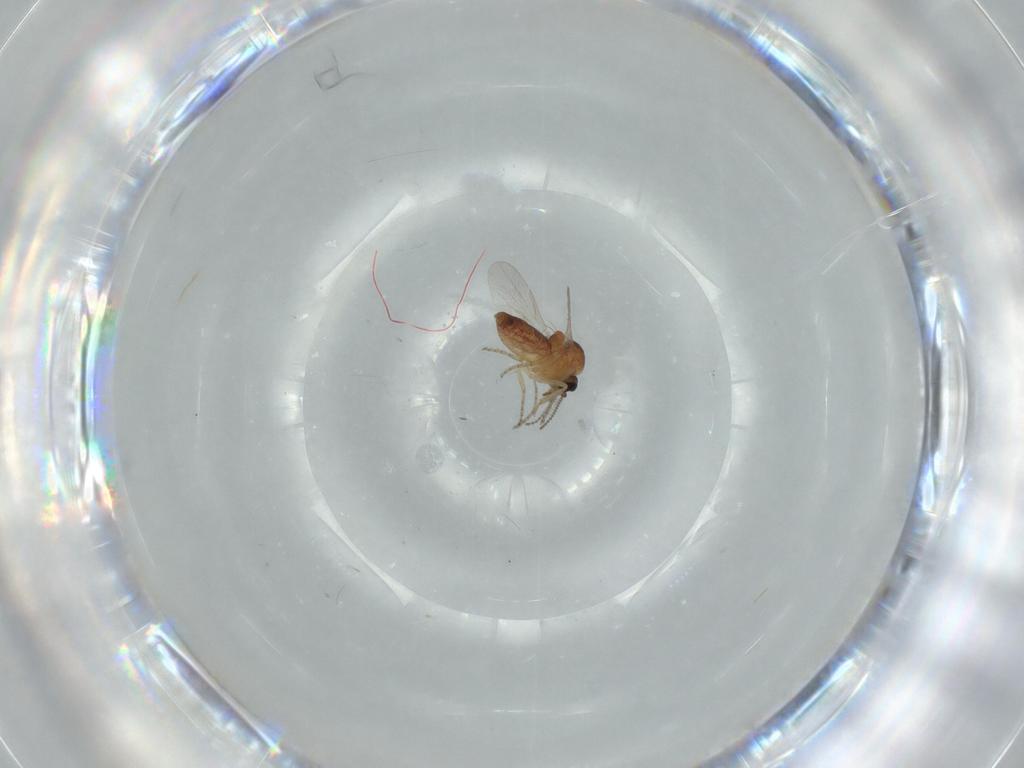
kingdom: Animalia
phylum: Arthropoda
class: Insecta
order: Diptera
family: Ceratopogonidae
